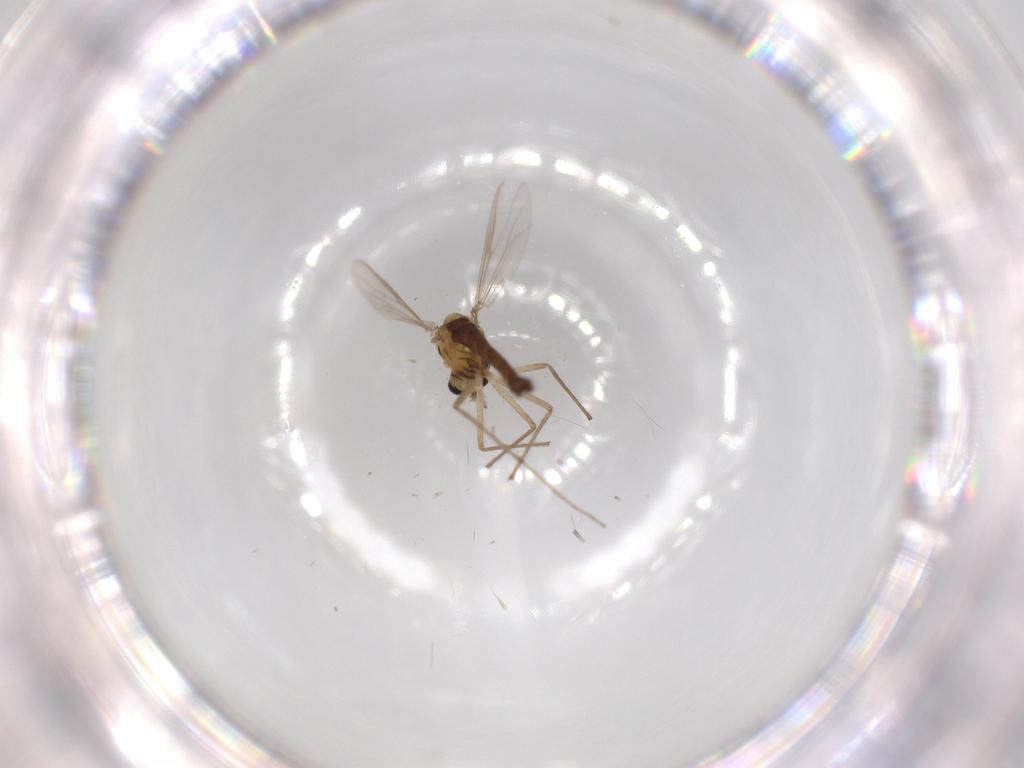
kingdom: Animalia
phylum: Arthropoda
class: Insecta
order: Diptera
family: Chironomidae
